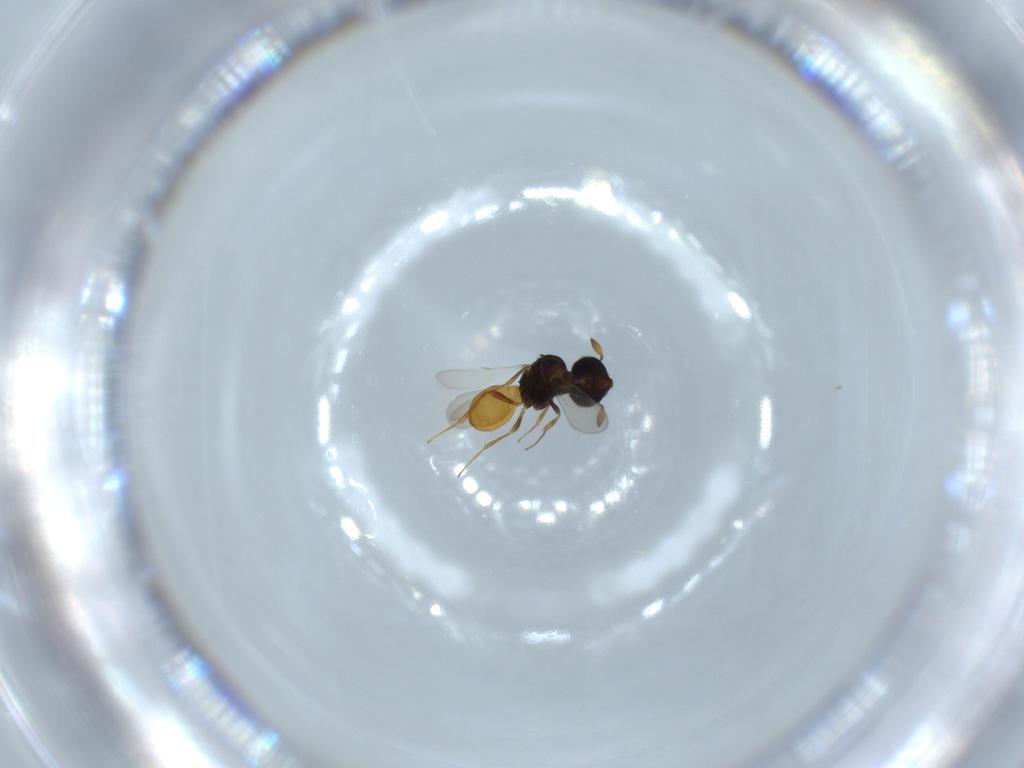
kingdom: Animalia
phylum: Arthropoda
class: Insecta
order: Hymenoptera
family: Scelionidae
